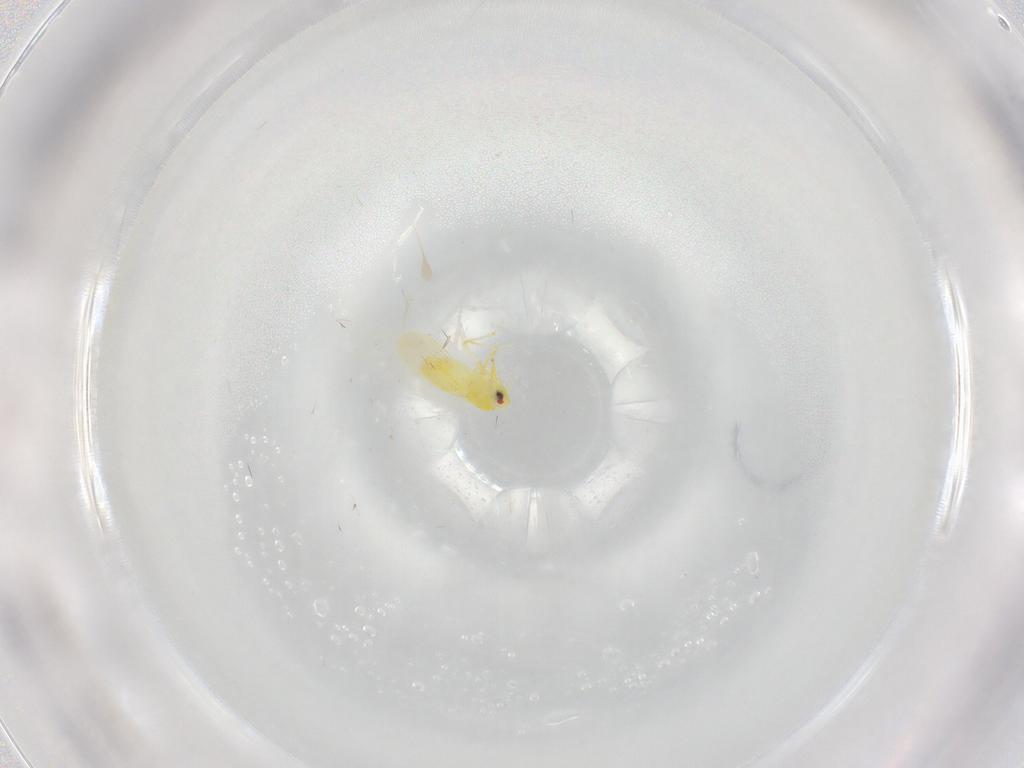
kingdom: Animalia
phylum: Arthropoda
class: Insecta
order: Hemiptera
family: Aleyrodidae
